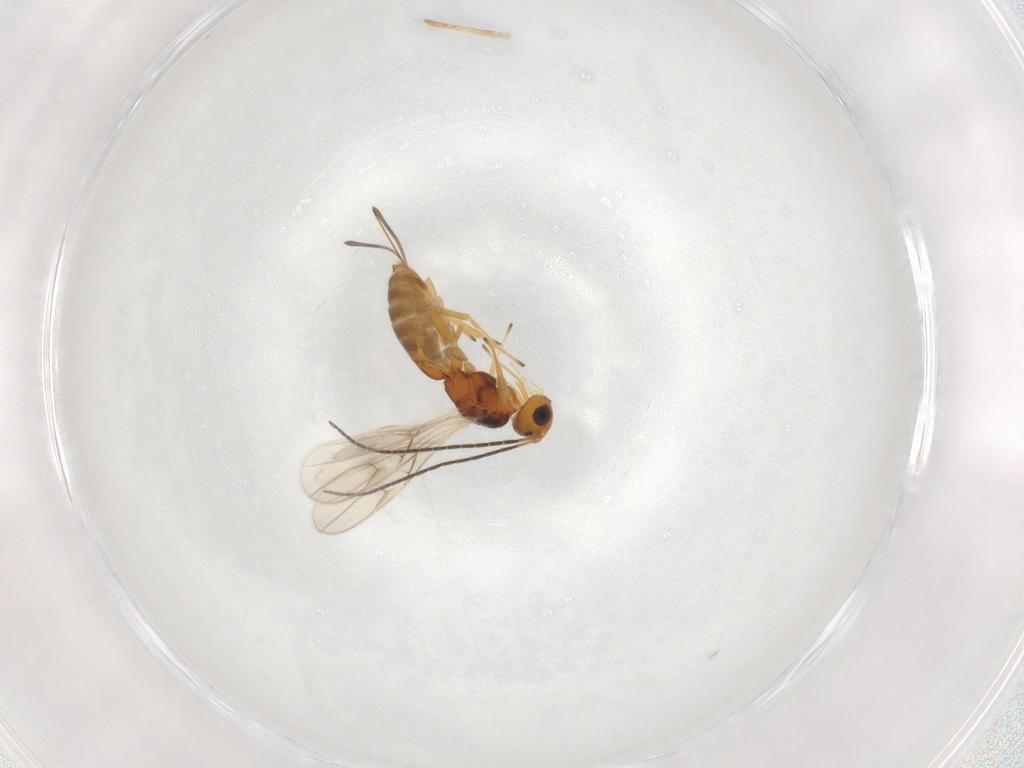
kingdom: Animalia
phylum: Arthropoda
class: Insecta
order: Hymenoptera
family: Braconidae
